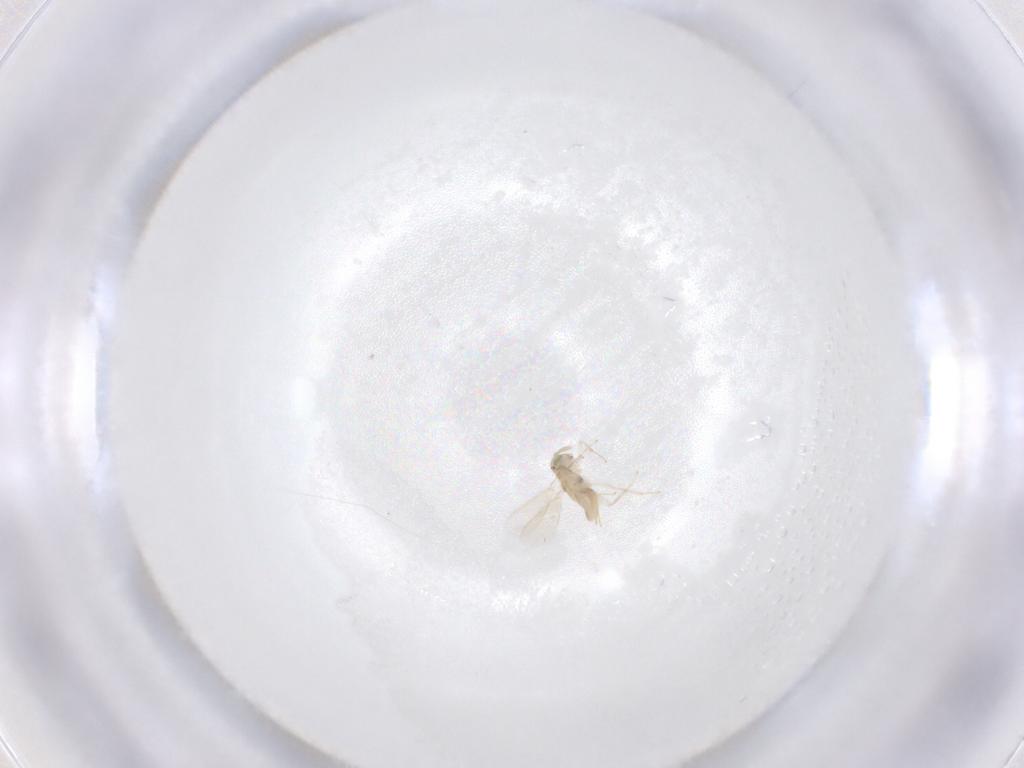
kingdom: Animalia
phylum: Arthropoda
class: Insecta
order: Hymenoptera
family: Aphelinidae
